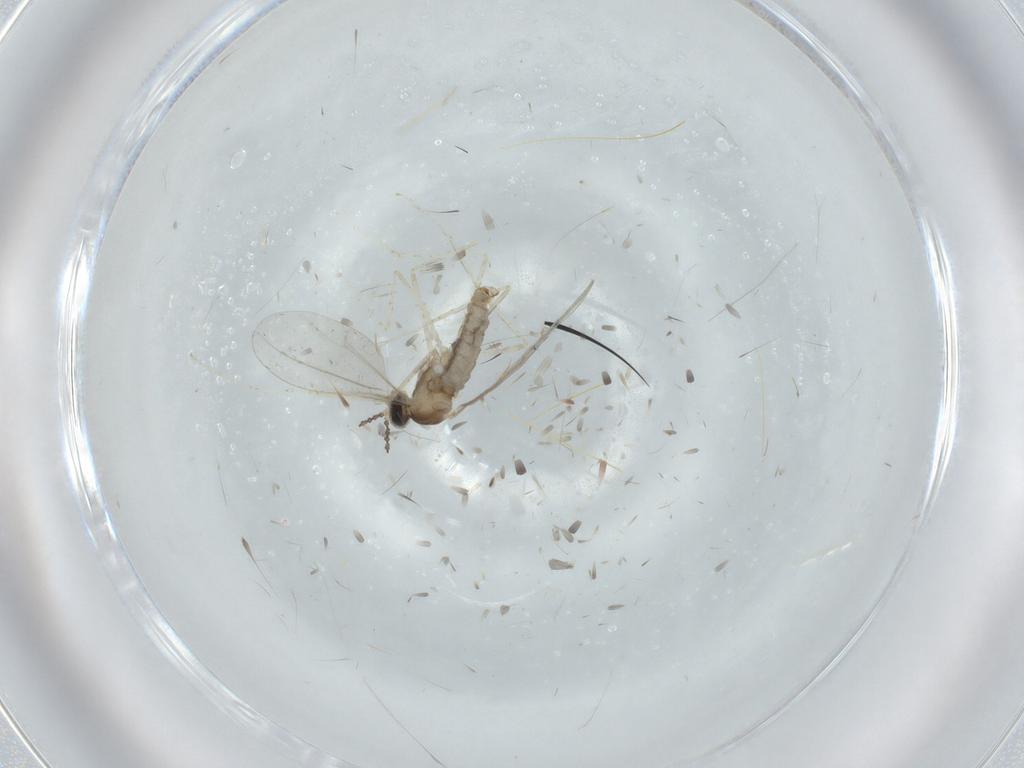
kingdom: Animalia
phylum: Arthropoda
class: Insecta
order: Diptera
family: Cecidomyiidae
